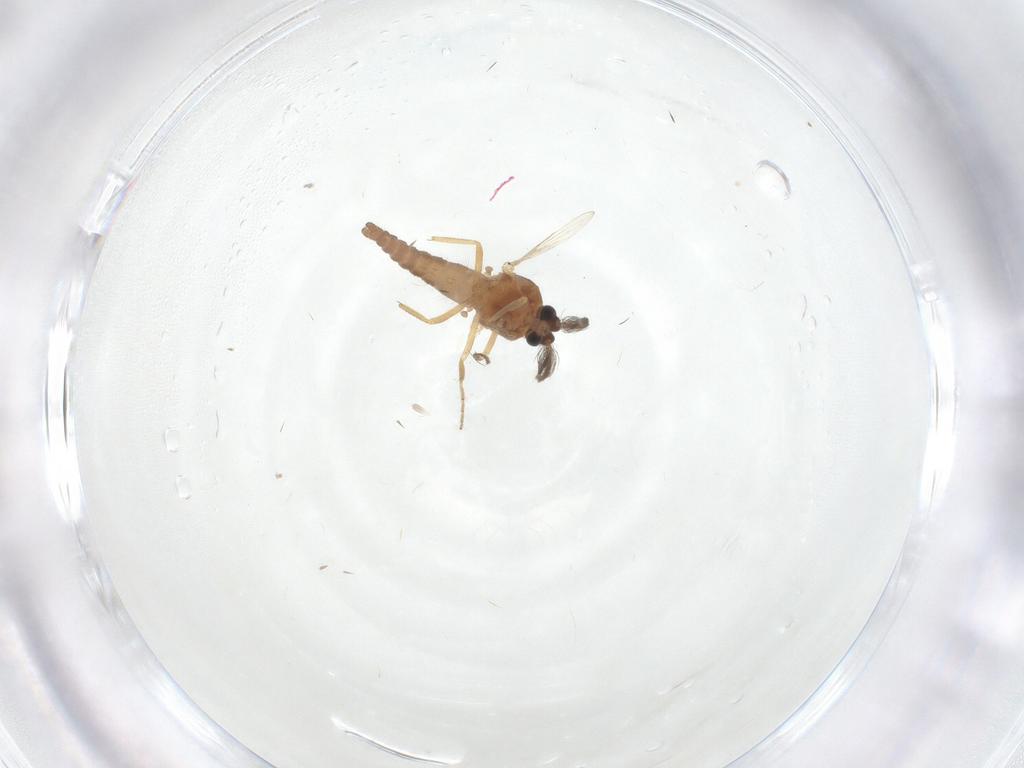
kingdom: Animalia
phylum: Arthropoda
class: Insecta
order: Diptera
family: Ceratopogonidae
